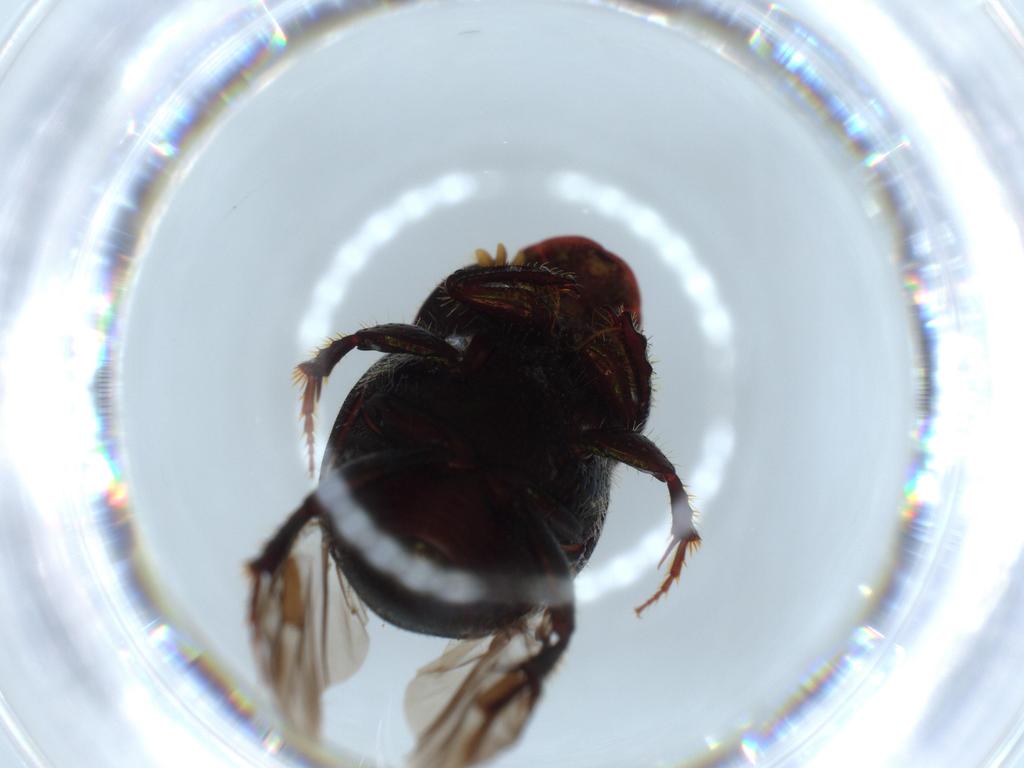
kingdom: Animalia
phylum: Arthropoda
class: Insecta
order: Coleoptera
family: Scarabaeidae
